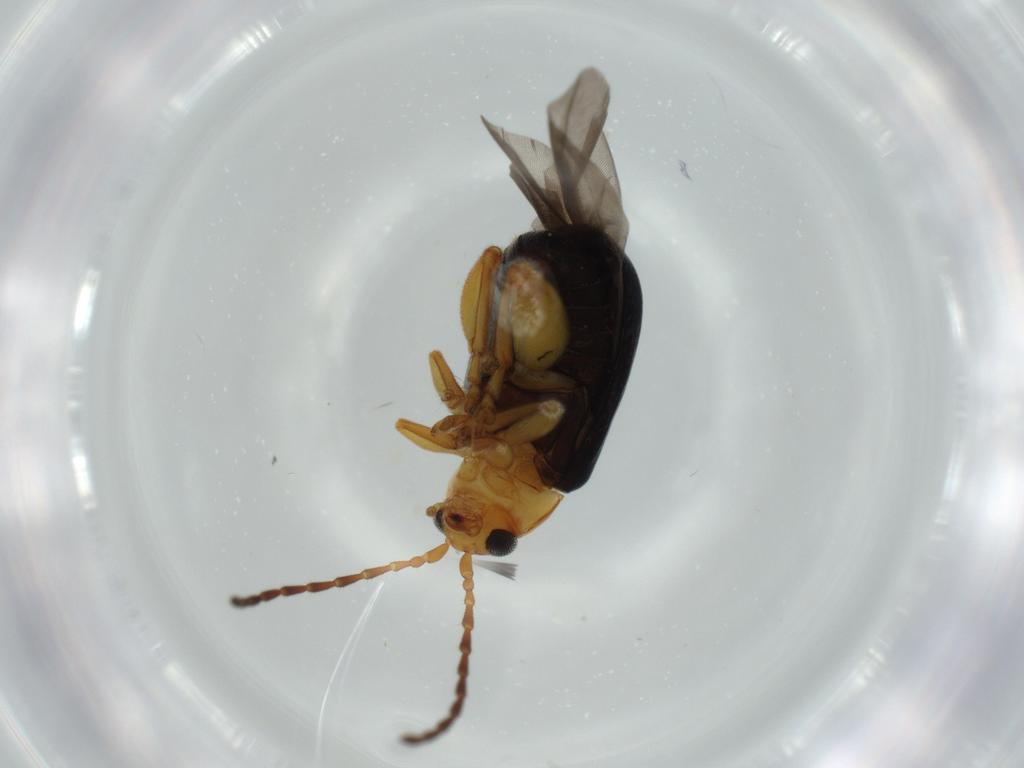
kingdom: Animalia
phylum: Arthropoda
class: Insecta
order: Coleoptera
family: Chrysomelidae
